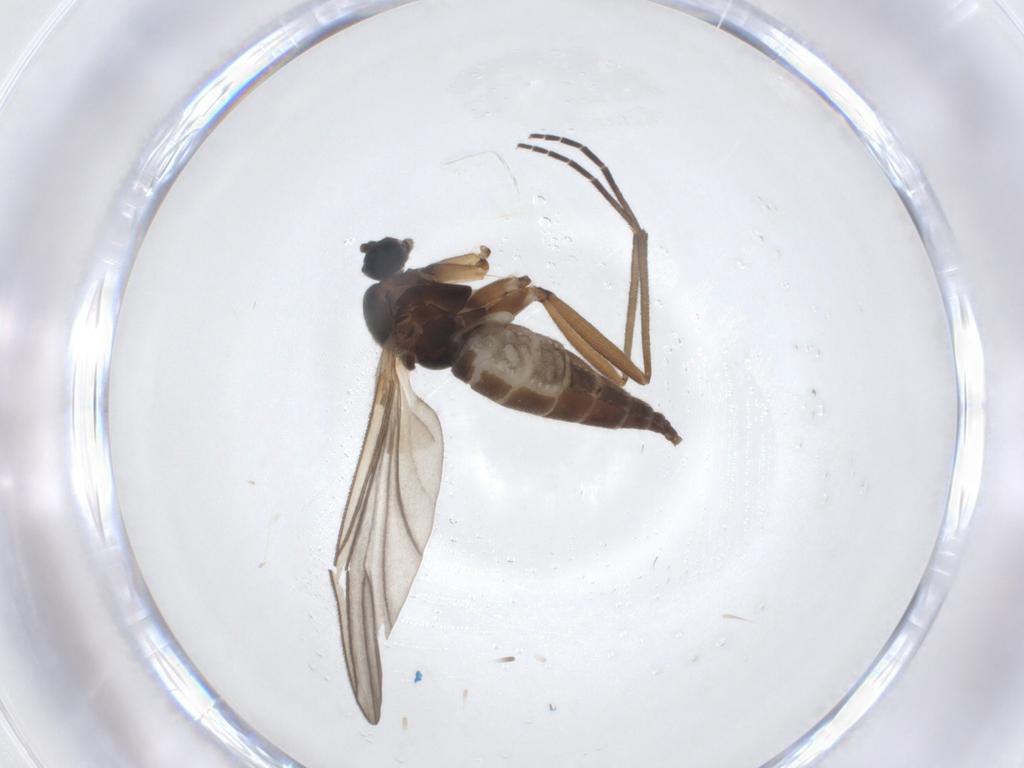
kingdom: Animalia
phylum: Arthropoda
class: Insecta
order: Diptera
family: Sciaridae
